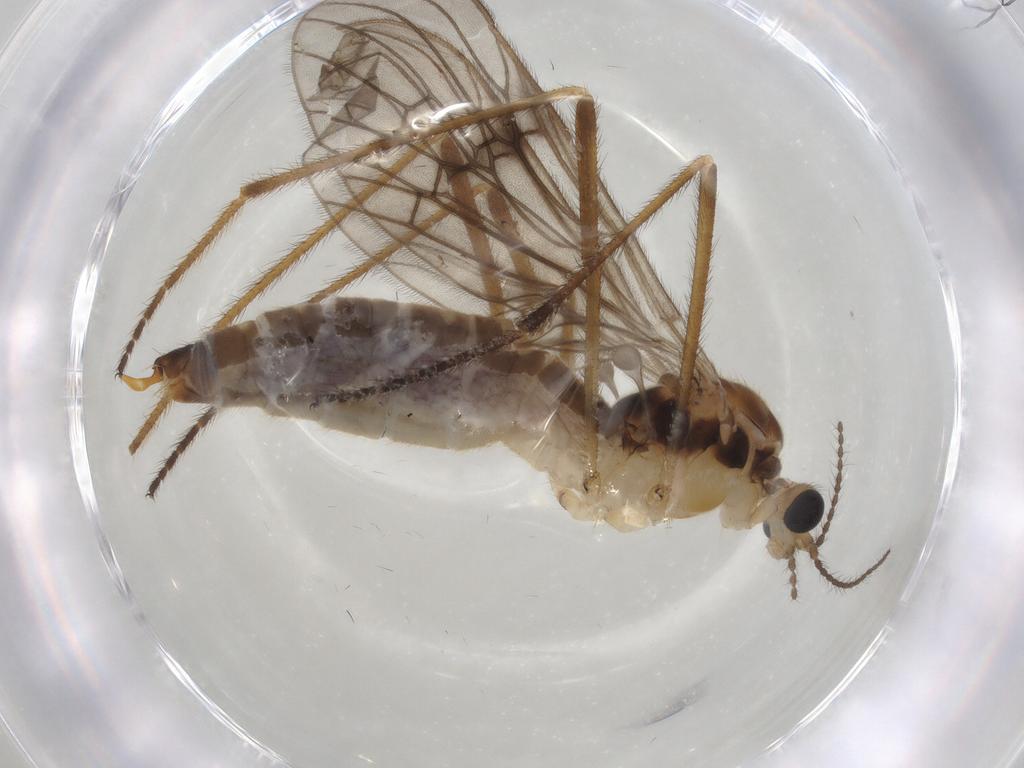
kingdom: Animalia
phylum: Arthropoda
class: Insecta
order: Diptera
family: Limoniidae
